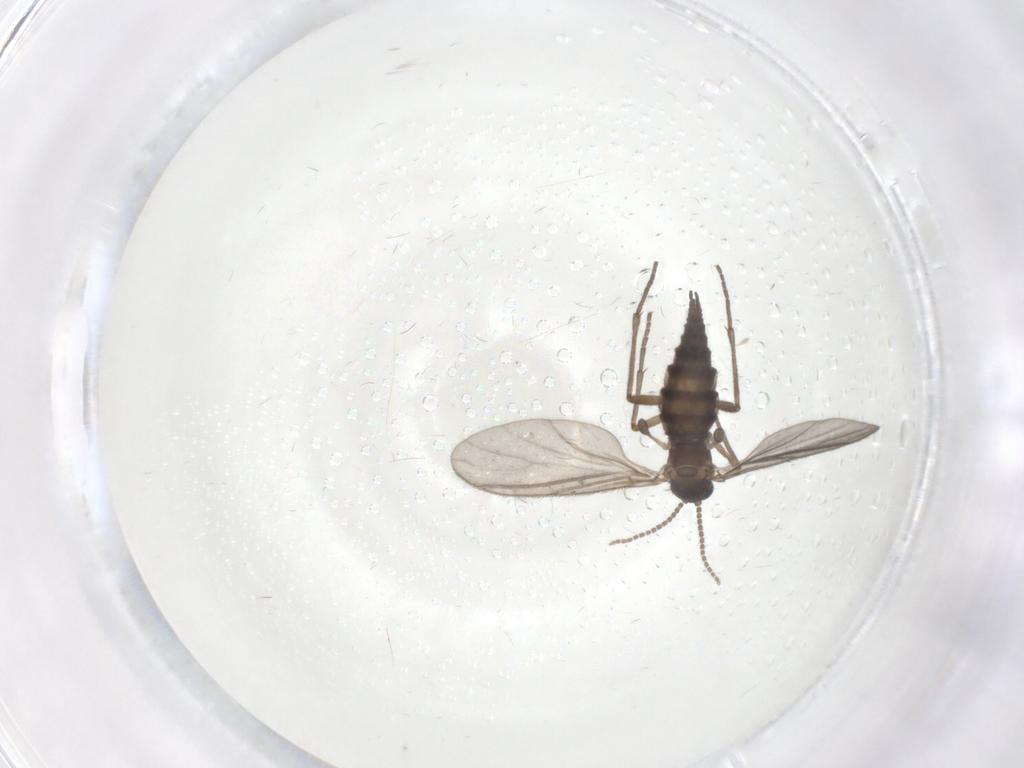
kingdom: Animalia
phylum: Arthropoda
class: Insecta
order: Diptera
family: Sciaridae
